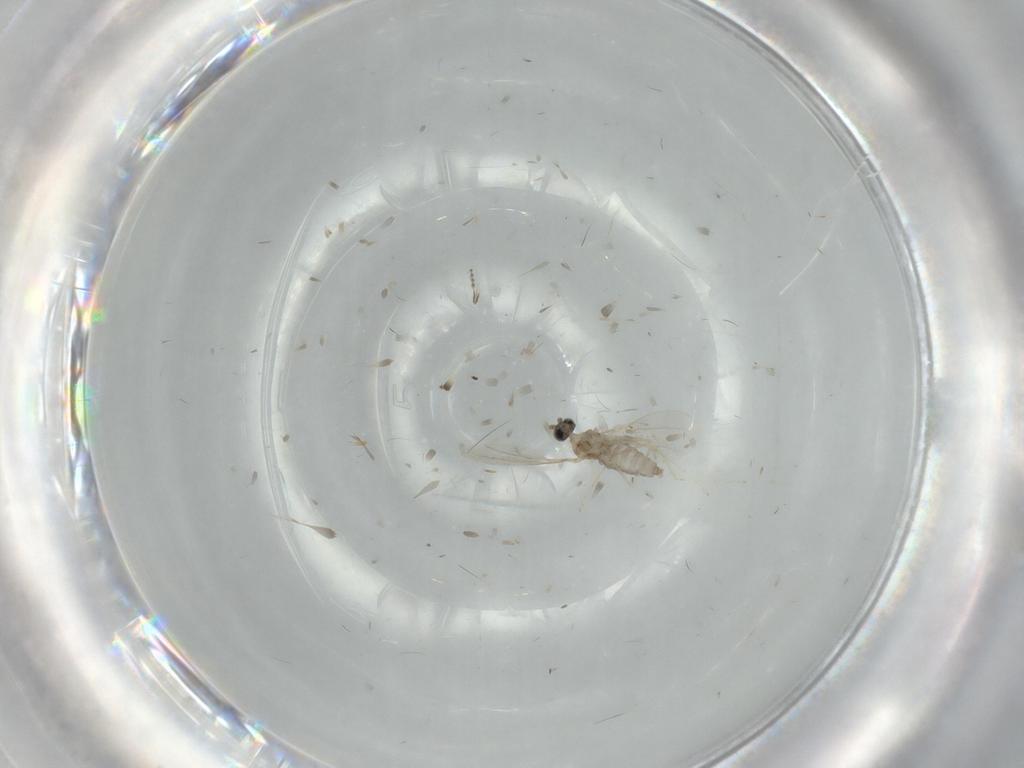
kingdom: Animalia
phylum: Arthropoda
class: Insecta
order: Diptera
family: Cecidomyiidae
